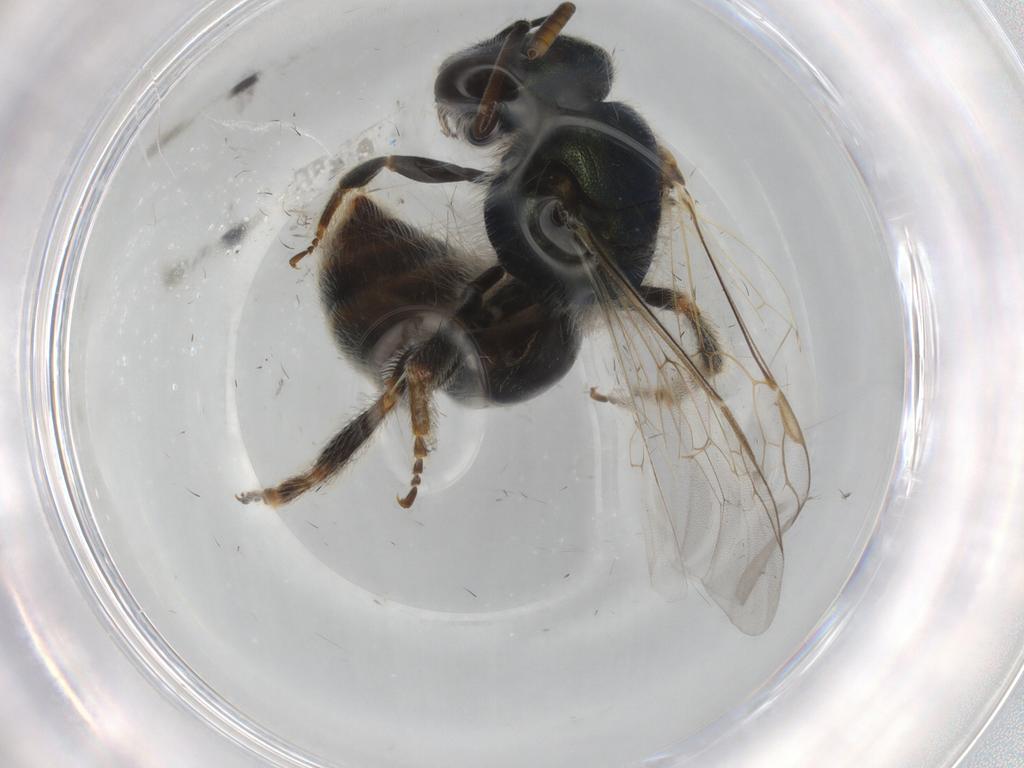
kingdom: Animalia
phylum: Arthropoda
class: Insecta
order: Hymenoptera
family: Halictidae
